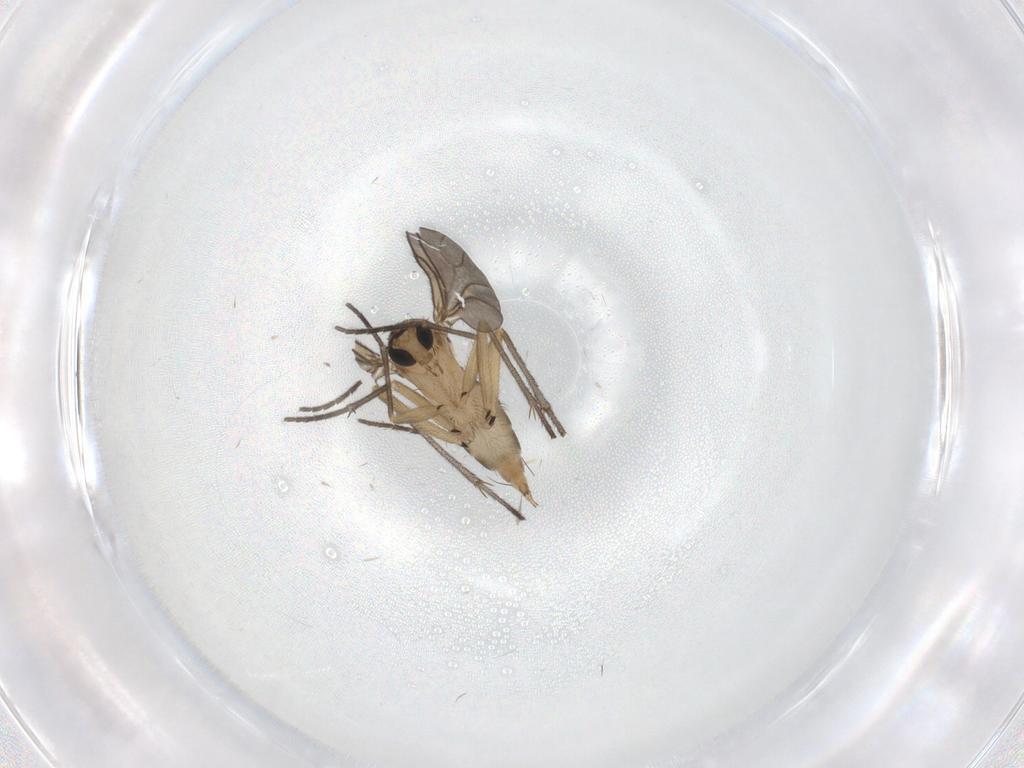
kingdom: Animalia
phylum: Arthropoda
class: Insecta
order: Diptera
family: Sciaridae
